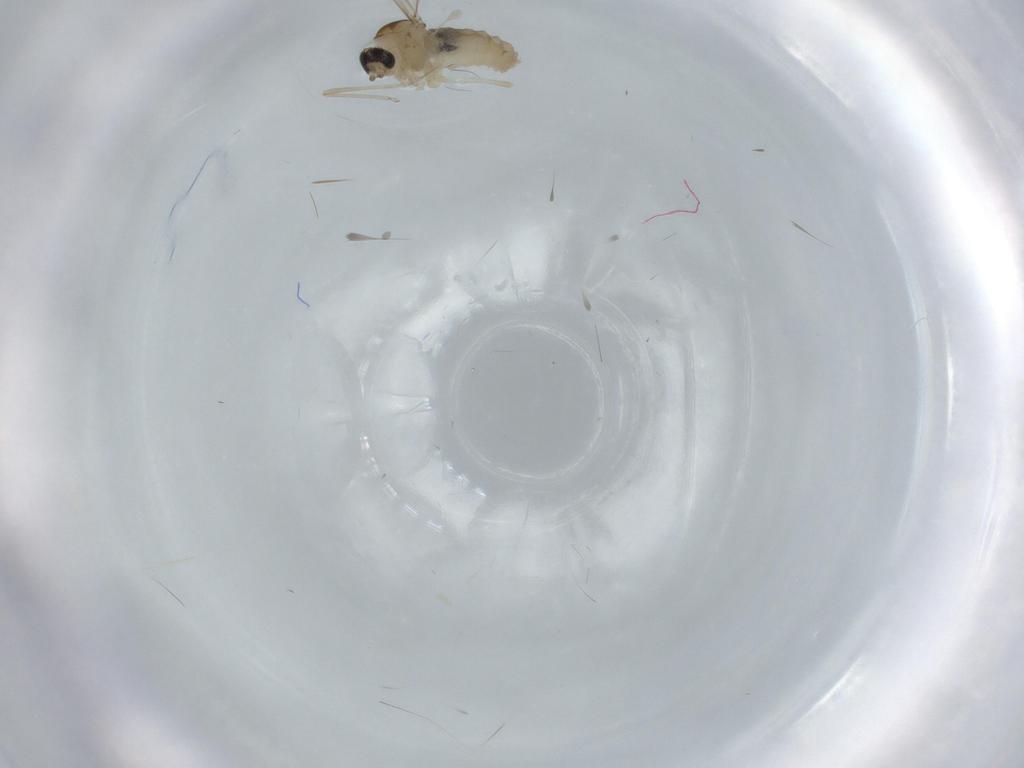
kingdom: Animalia
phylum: Arthropoda
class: Insecta
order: Diptera
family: Cecidomyiidae
